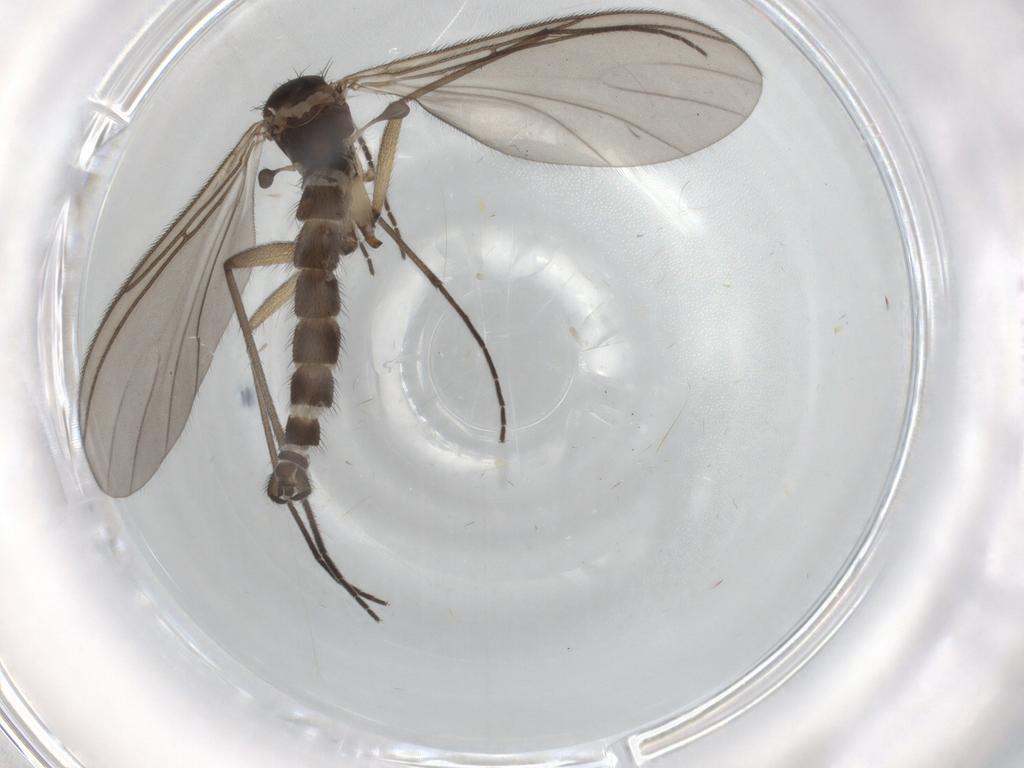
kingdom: Animalia
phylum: Arthropoda
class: Insecta
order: Diptera
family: Sciaridae
